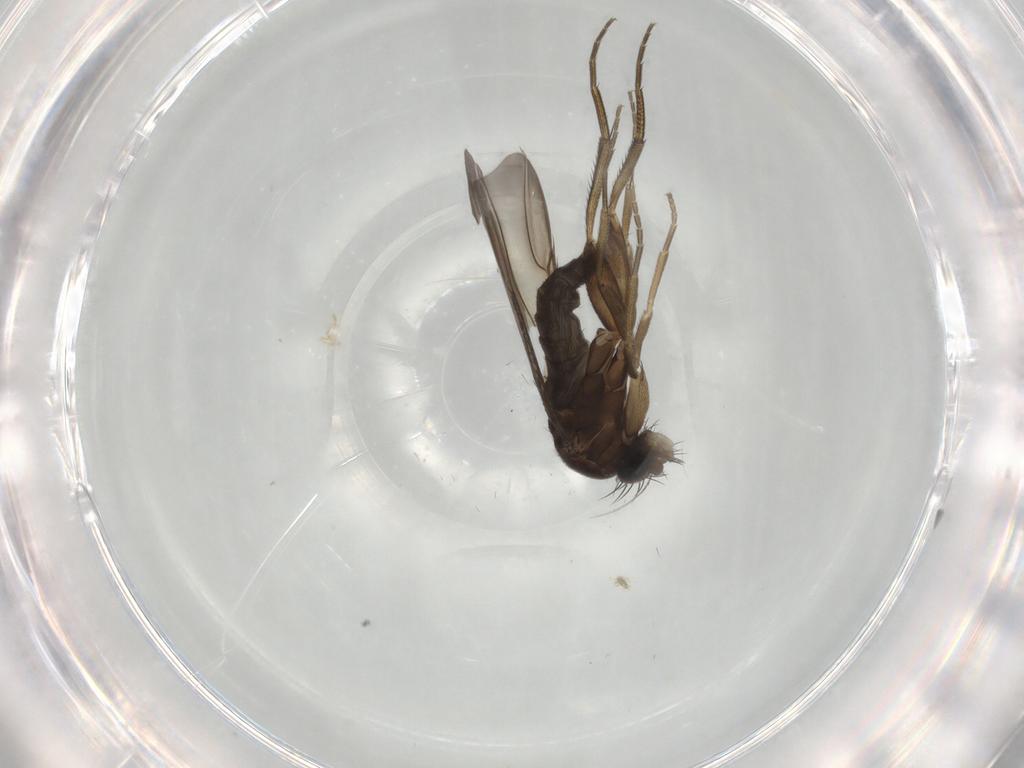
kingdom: Animalia
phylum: Arthropoda
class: Insecta
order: Diptera
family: Phoridae
